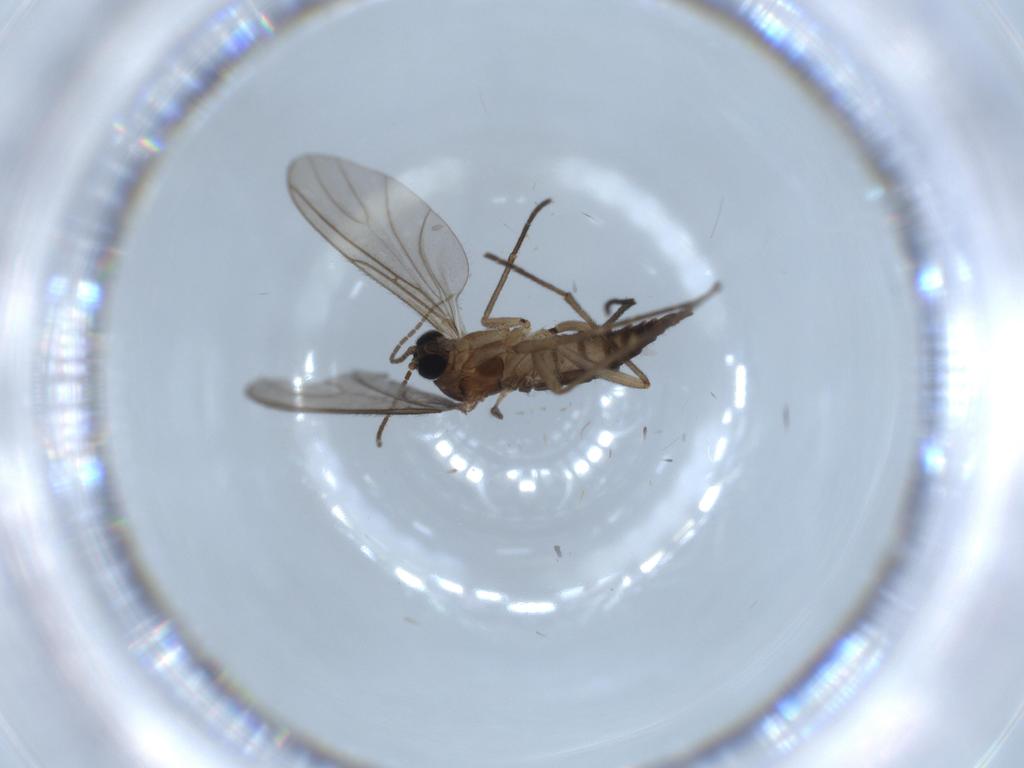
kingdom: Animalia
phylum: Arthropoda
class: Insecta
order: Diptera
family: Sciaridae
